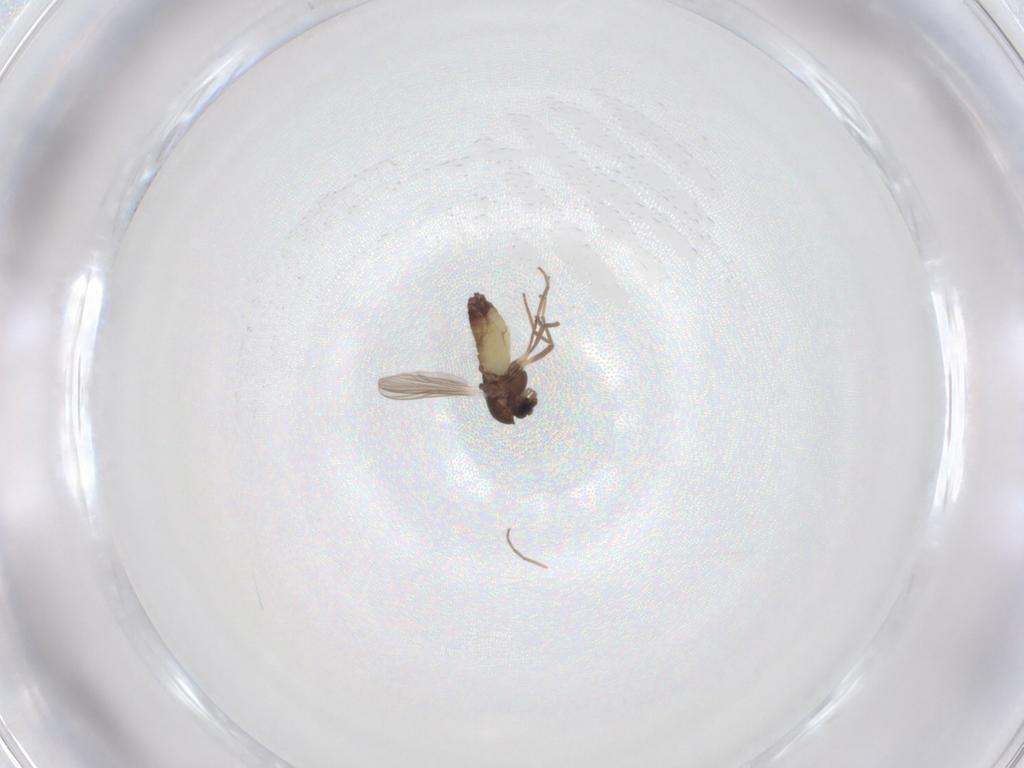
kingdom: Animalia
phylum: Arthropoda
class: Insecta
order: Diptera
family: Chironomidae
